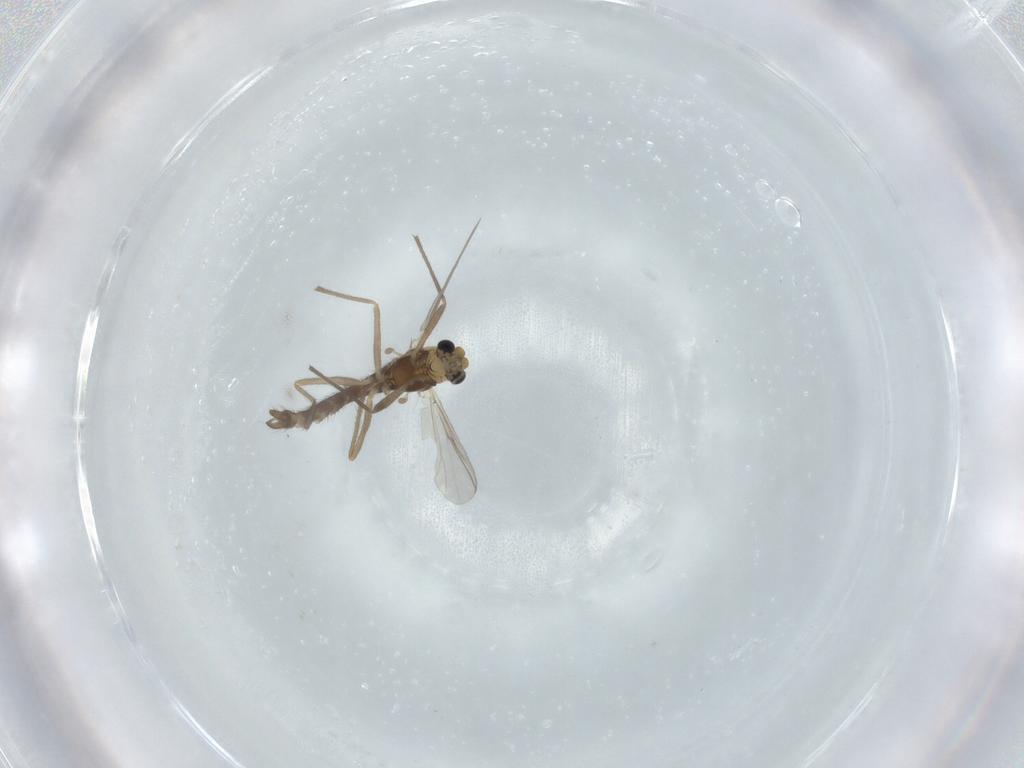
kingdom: Animalia
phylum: Arthropoda
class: Insecta
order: Diptera
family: Chironomidae
